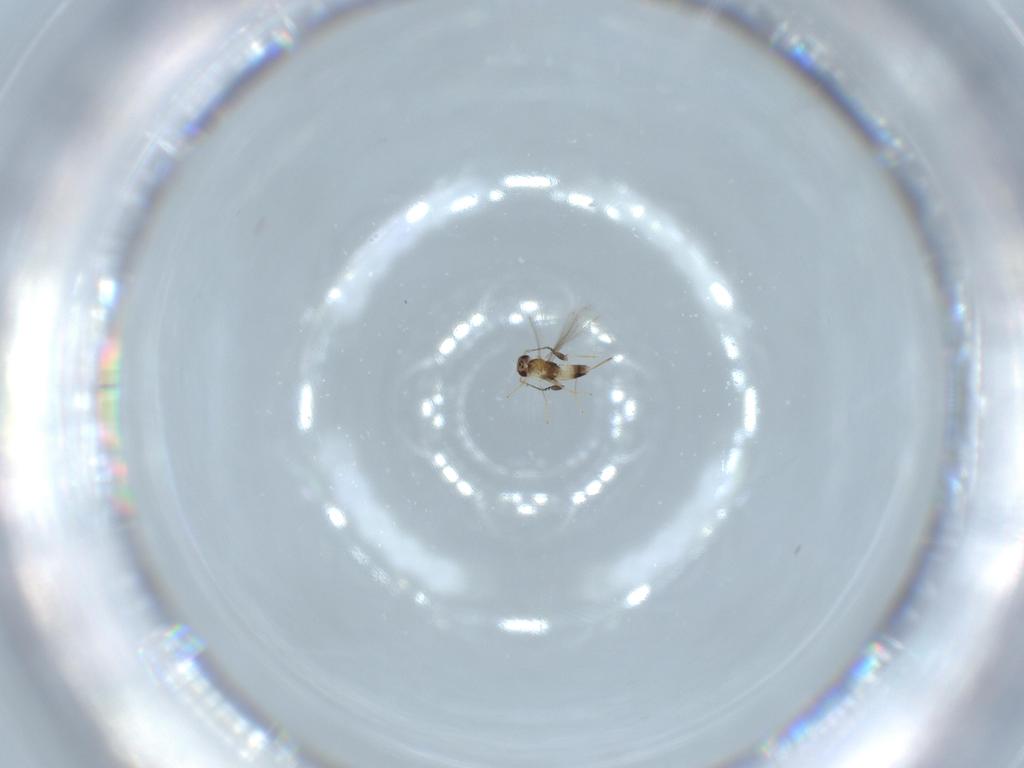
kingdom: Animalia
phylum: Arthropoda
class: Insecta
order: Hymenoptera
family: Mymaridae
